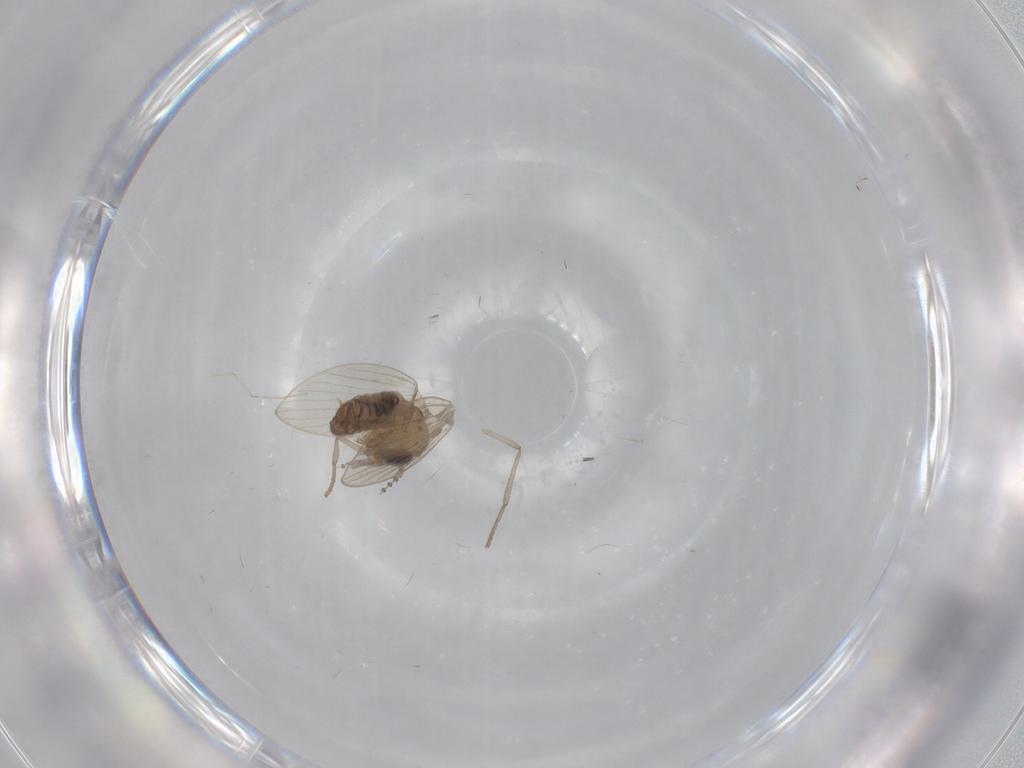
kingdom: Animalia
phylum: Arthropoda
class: Insecta
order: Diptera
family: Psychodidae
